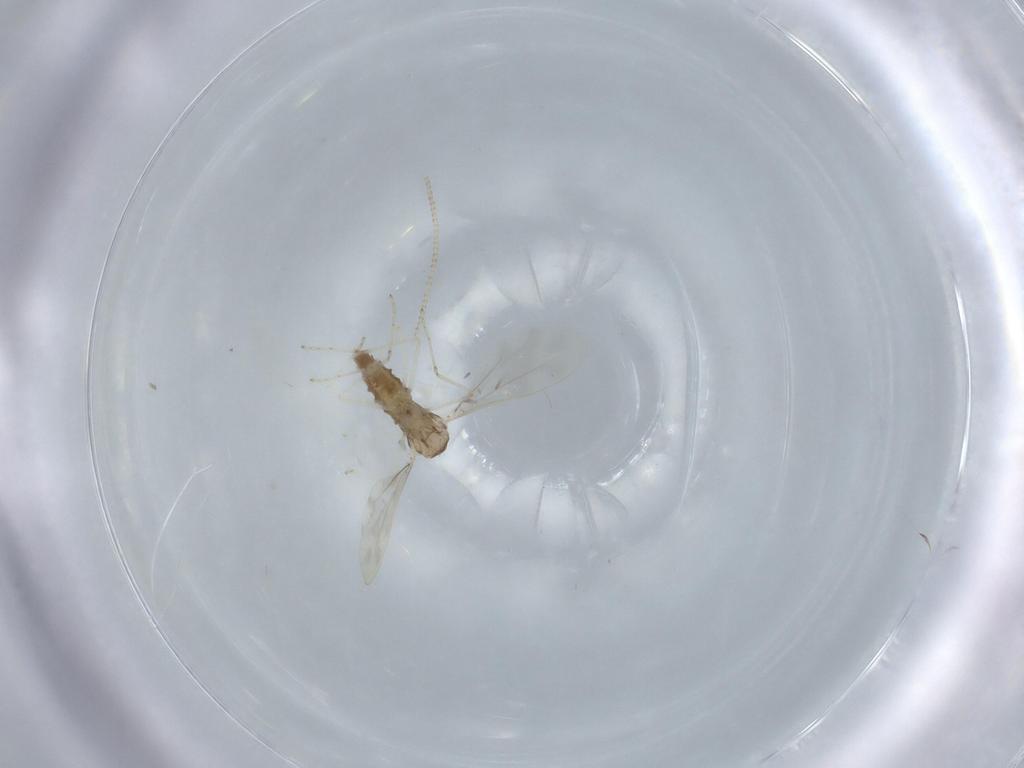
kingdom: Animalia
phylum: Arthropoda
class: Insecta
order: Diptera
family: Cecidomyiidae
